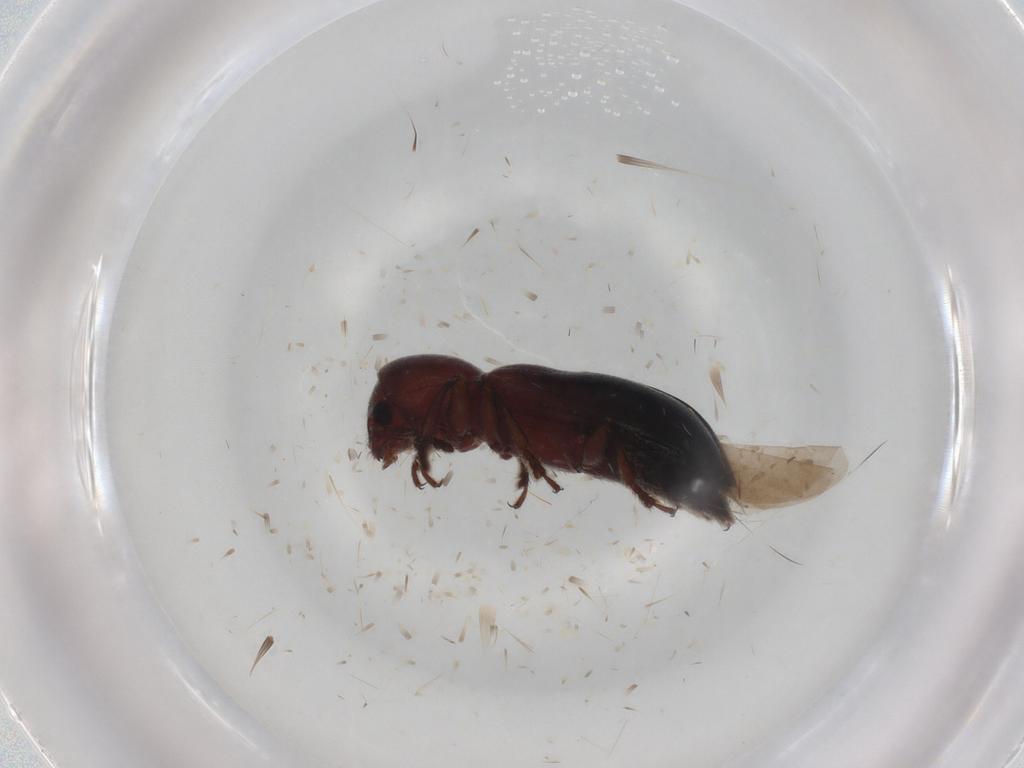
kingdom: Animalia
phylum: Arthropoda
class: Insecta
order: Coleoptera
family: Erotylidae
